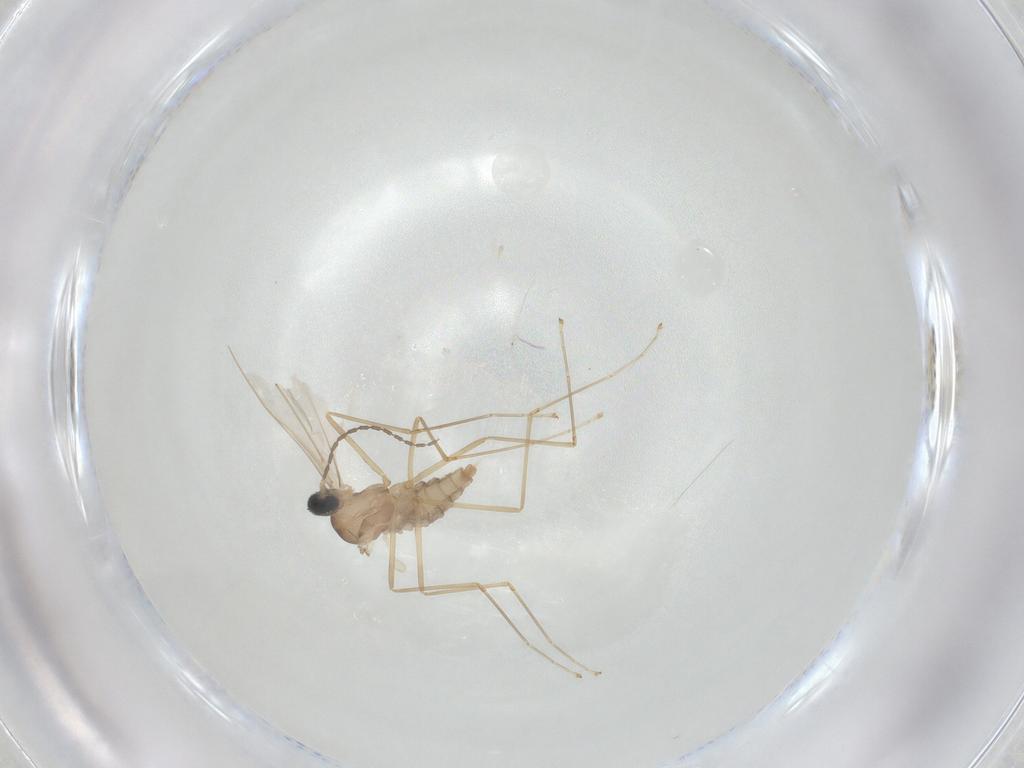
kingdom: Animalia
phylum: Arthropoda
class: Insecta
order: Diptera
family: Cecidomyiidae
